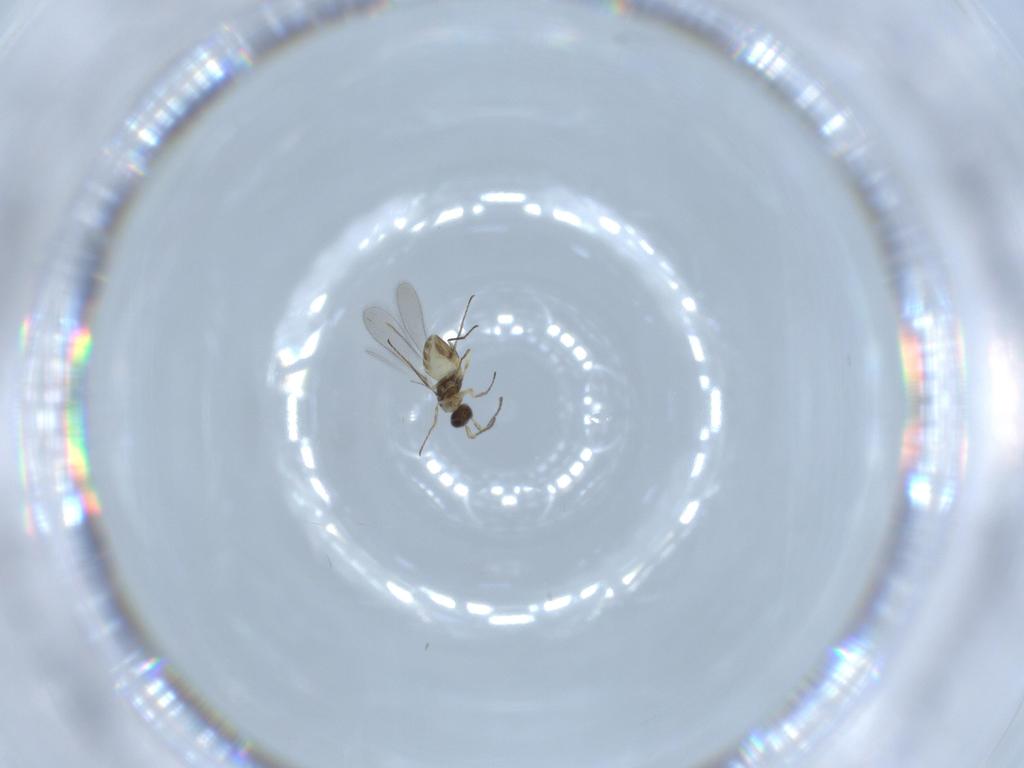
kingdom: Animalia
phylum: Arthropoda
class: Insecta
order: Hymenoptera
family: Mymaridae
